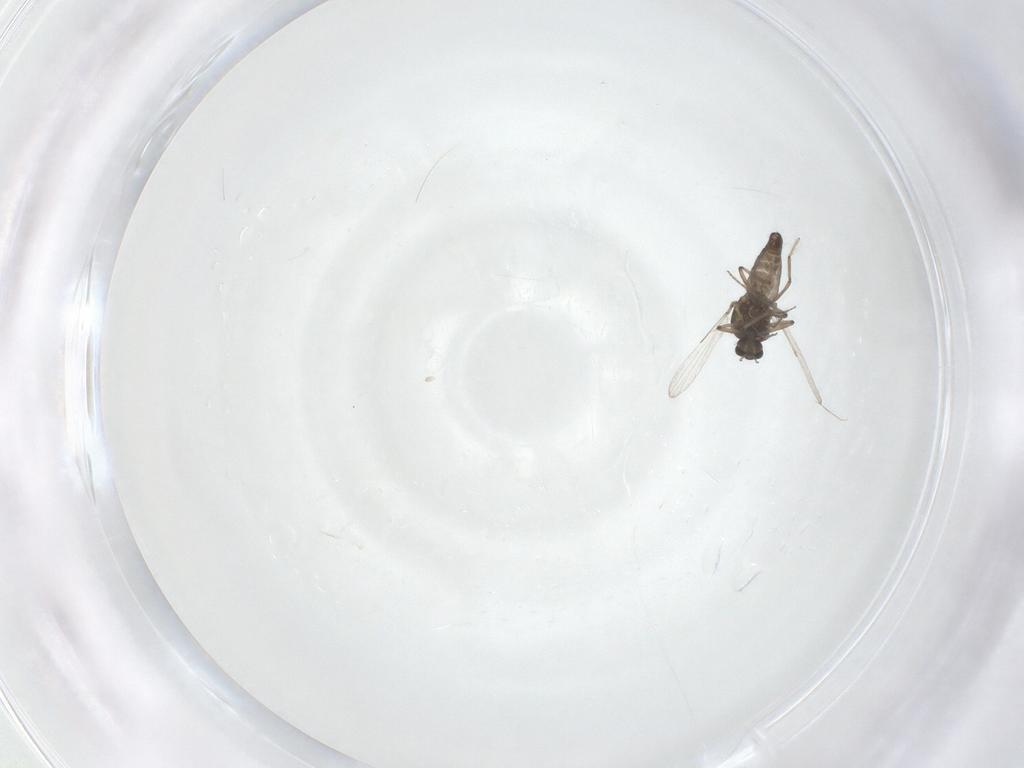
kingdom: Animalia
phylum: Arthropoda
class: Insecta
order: Diptera
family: Ceratopogonidae
